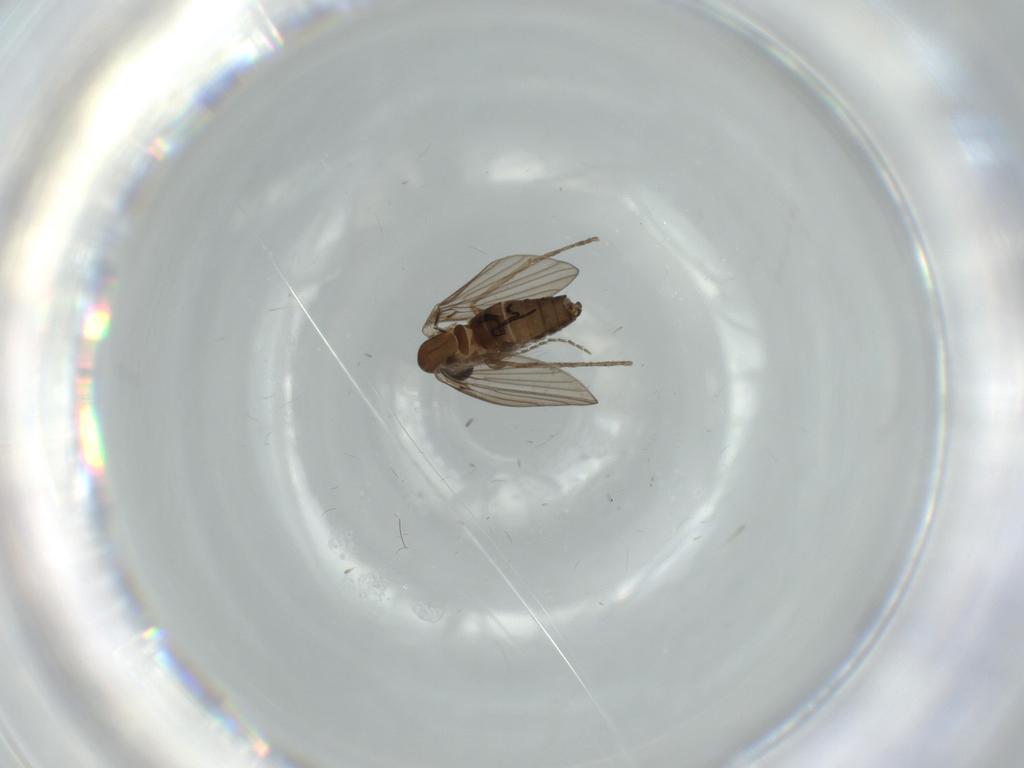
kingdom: Animalia
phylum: Arthropoda
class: Insecta
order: Diptera
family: Psychodidae
